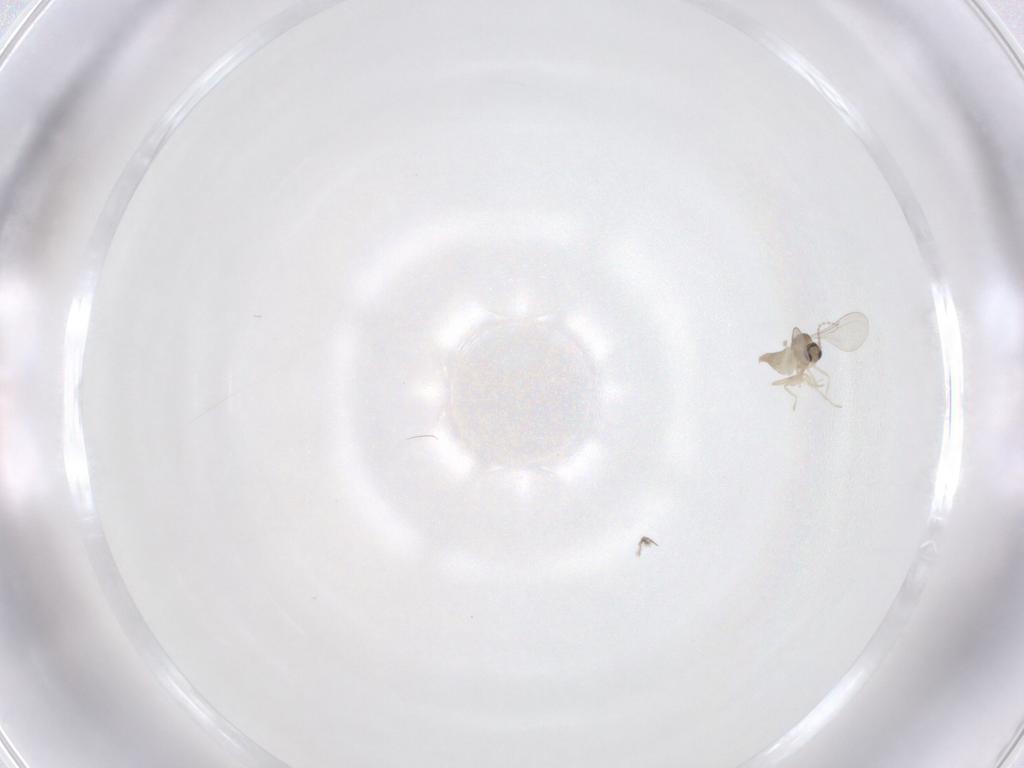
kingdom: Animalia
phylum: Arthropoda
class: Insecta
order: Diptera
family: Cecidomyiidae
